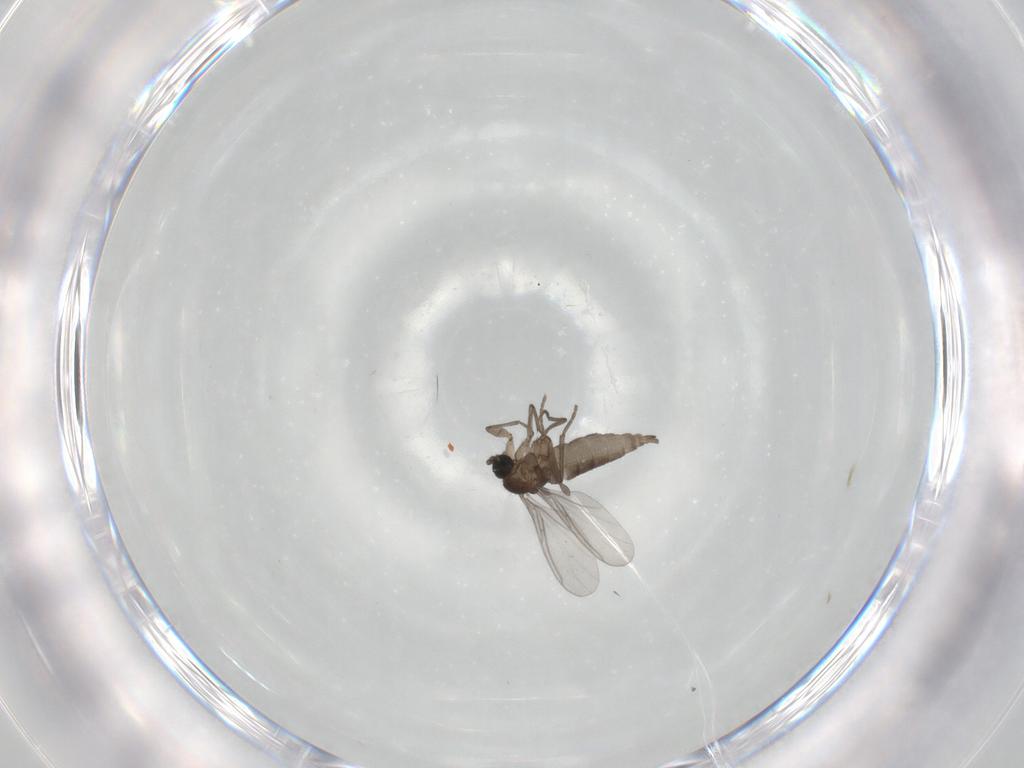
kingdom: Animalia
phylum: Arthropoda
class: Insecta
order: Diptera
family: Sciaridae
